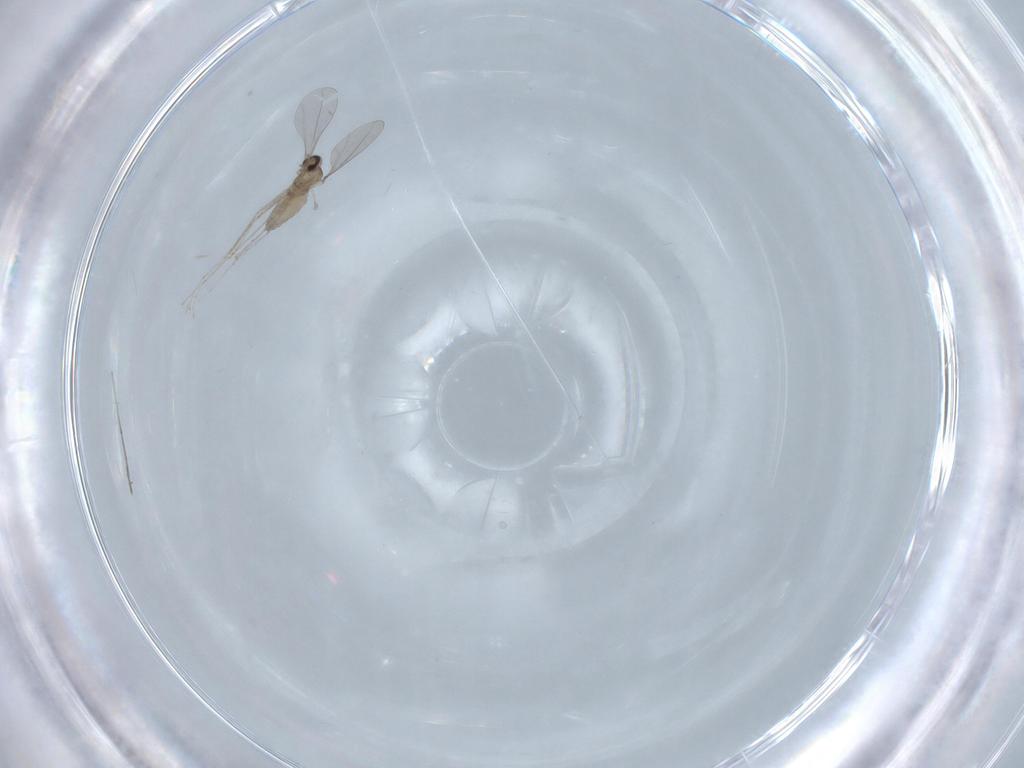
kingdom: Animalia
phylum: Arthropoda
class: Insecta
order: Diptera
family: Cecidomyiidae
